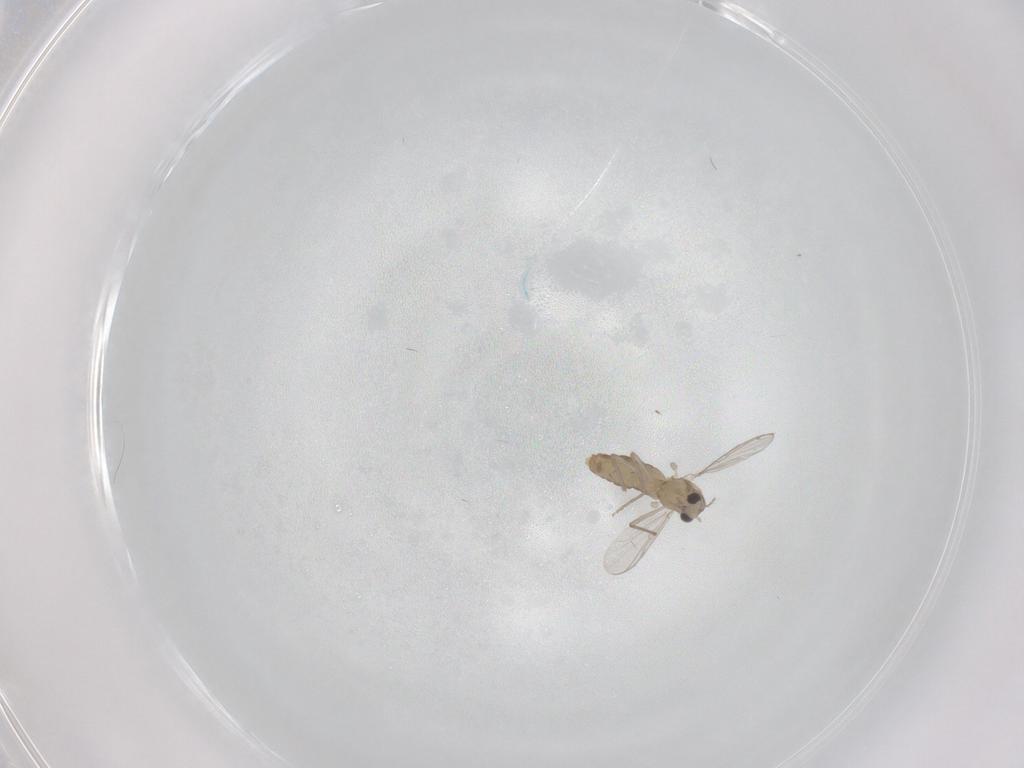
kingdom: Animalia
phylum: Arthropoda
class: Insecta
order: Diptera
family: Chironomidae
